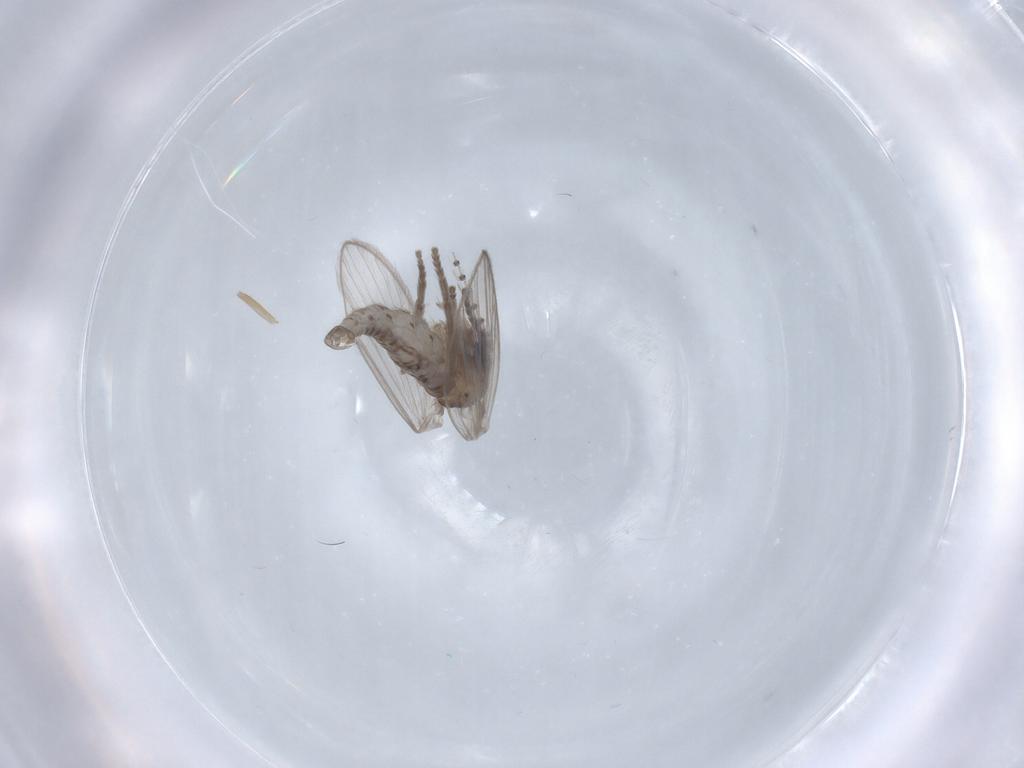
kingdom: Animalia
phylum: Arthropoda
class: Insecta
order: Diptera
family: Psychodidae
